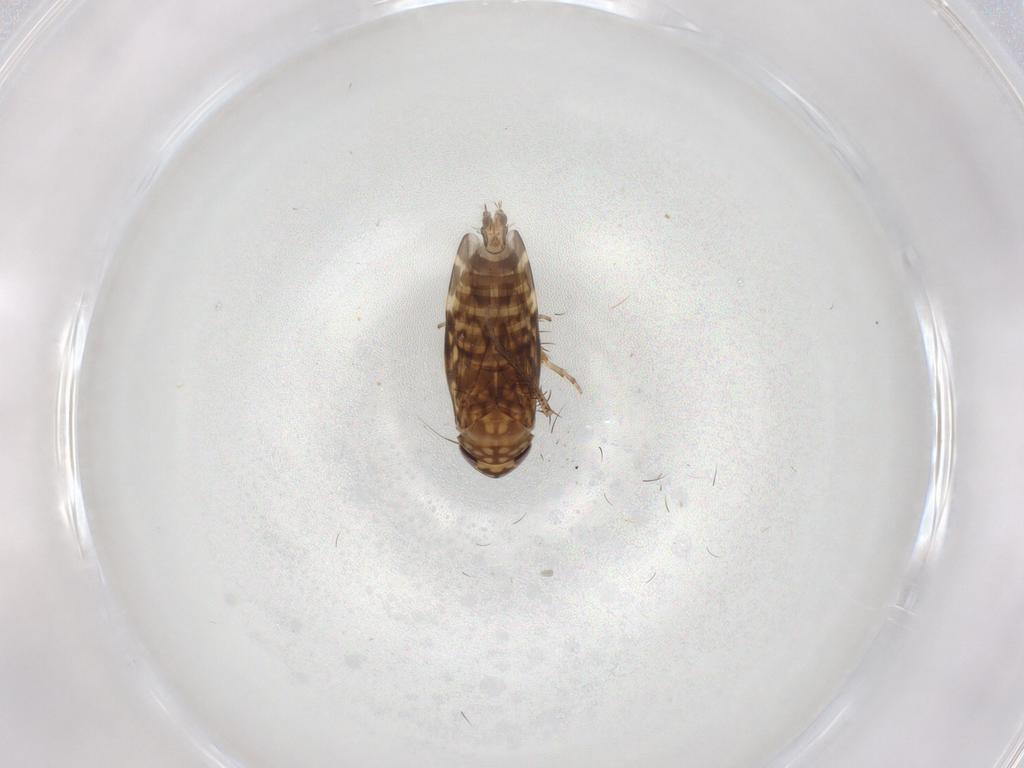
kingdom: Animalia
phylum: Arthropoda
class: Insecta
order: Hemiptera
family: Cicadellidae
